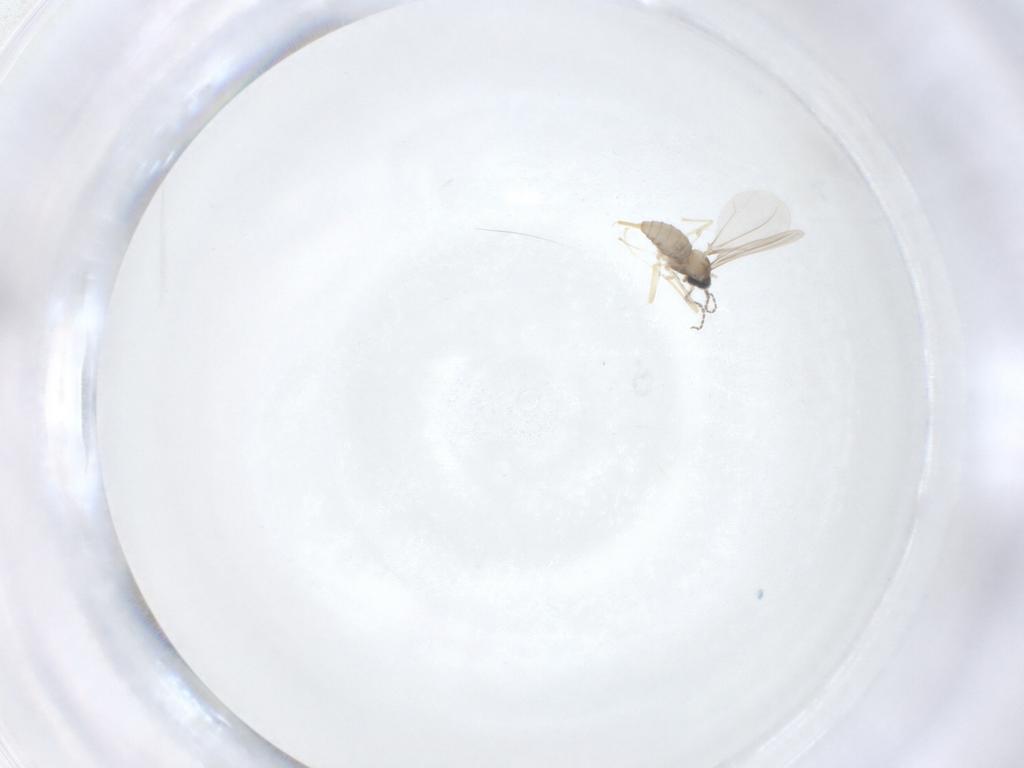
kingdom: Animalia
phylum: Arthropoda
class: Insecta
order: Diptera
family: Cecidomyiidae
